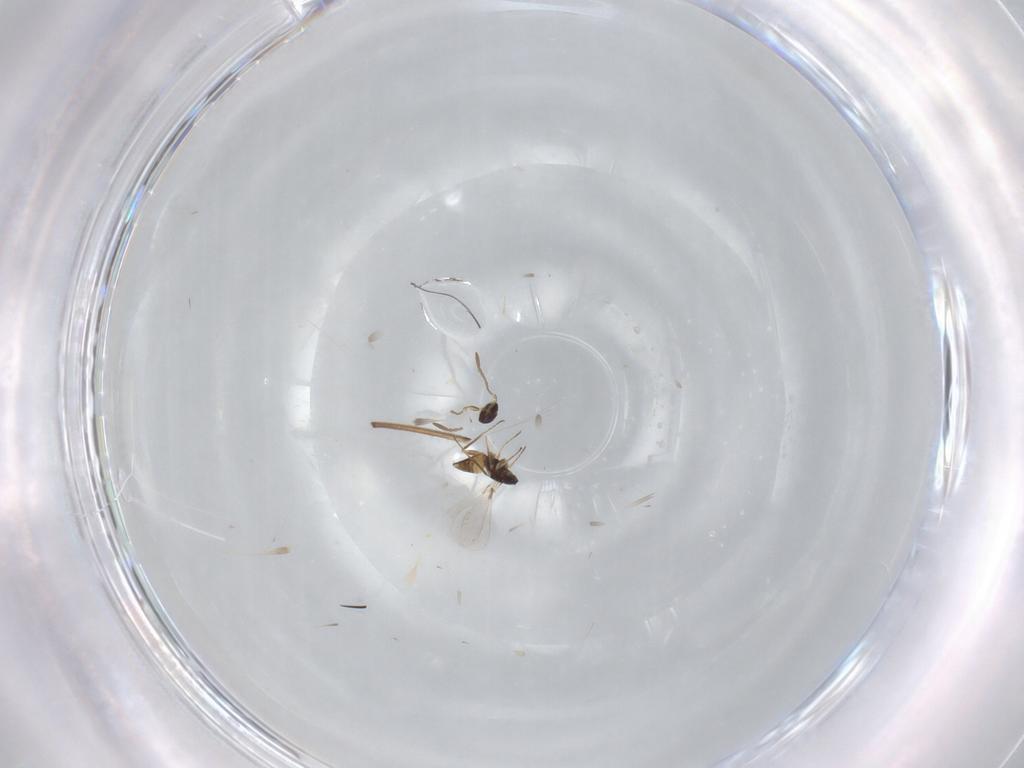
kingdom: Animalia
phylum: Arthropoda
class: Insecta
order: Hymenoptera
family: Mymaridae
